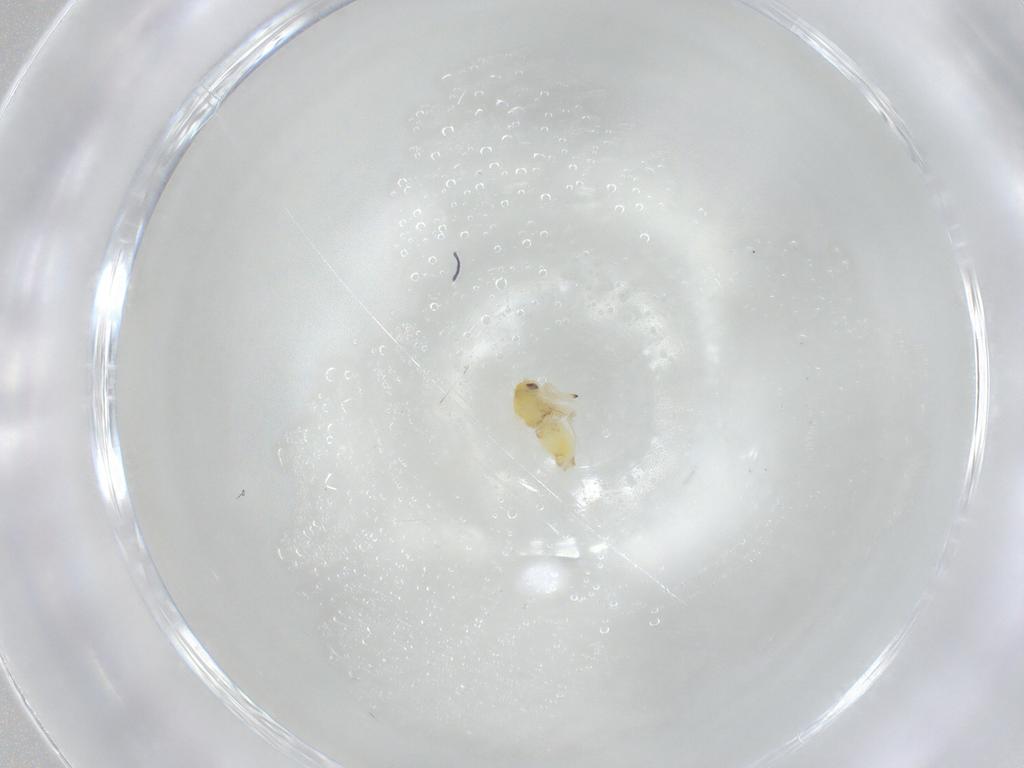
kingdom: Animalia
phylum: Arthropoda
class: Insecta
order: Hemiptera
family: Aleyrodidae
